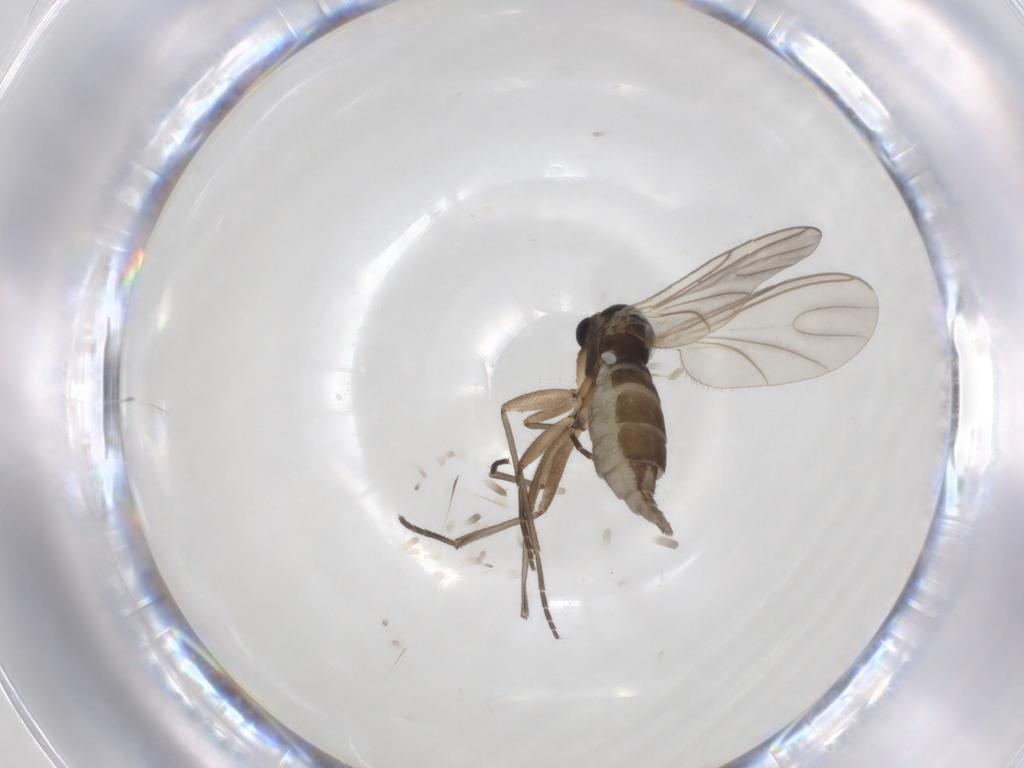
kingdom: Animalia
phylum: Arthropoda
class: Insecta
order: Diptera
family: Chironomidae
